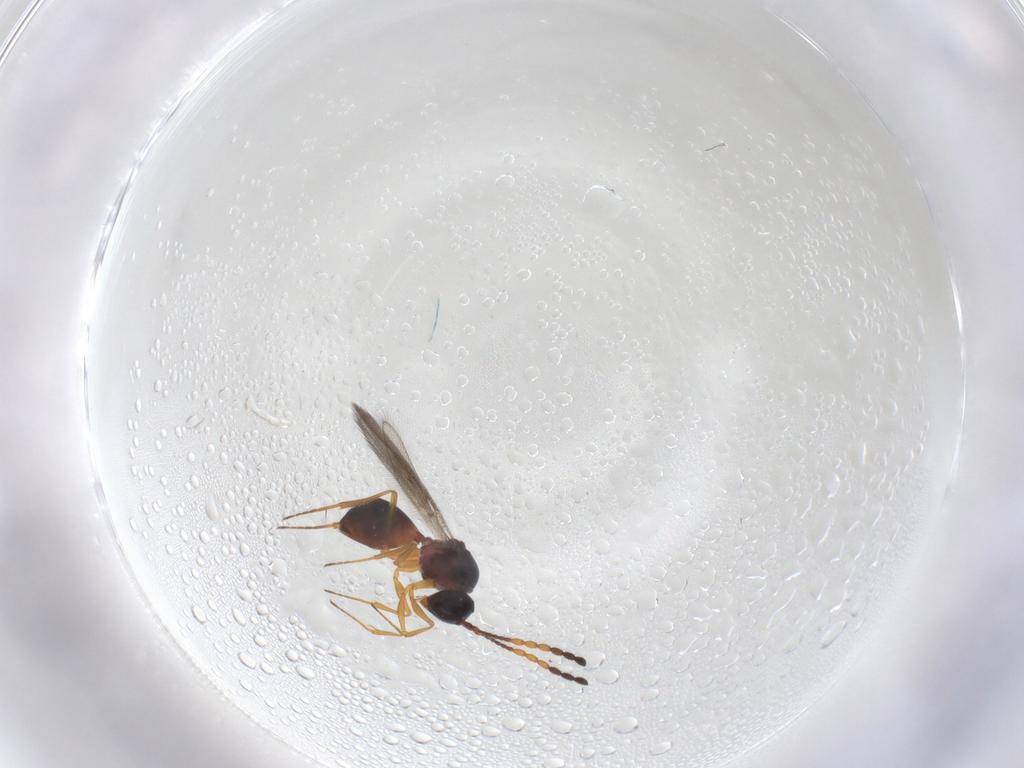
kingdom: Animalia
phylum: Arthropoda
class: Insecta
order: Hymenoptera
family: Figitidae
